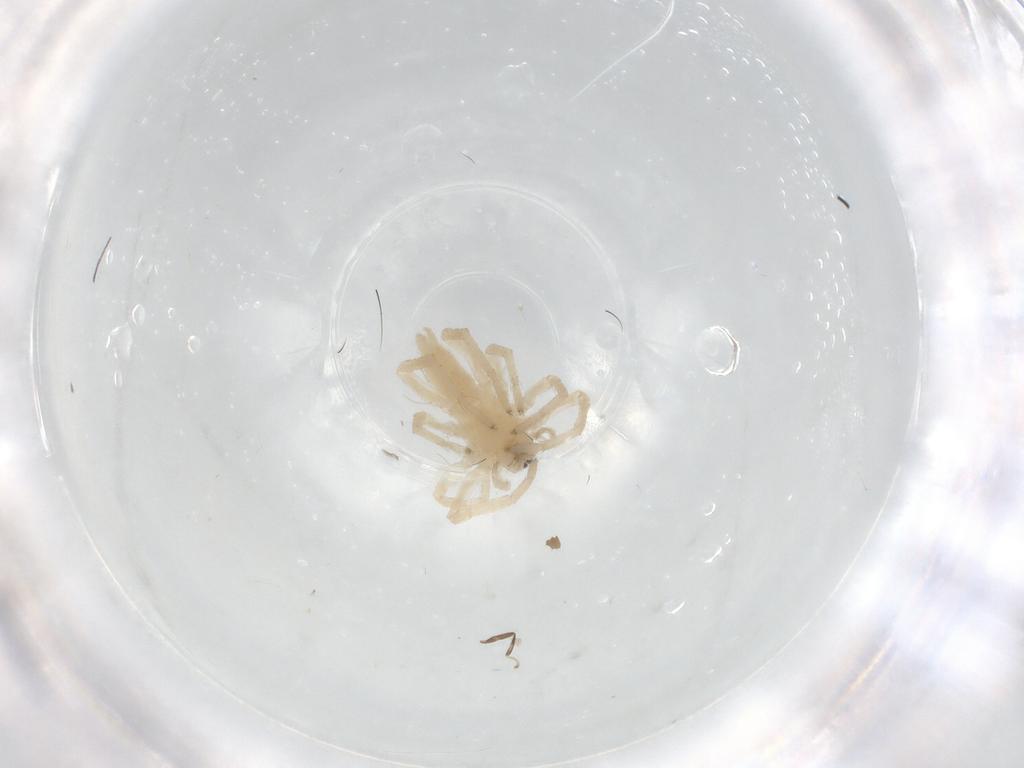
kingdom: Animalia
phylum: Arthropoda
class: Arachnida
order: Araneae
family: Anyphaenidae
